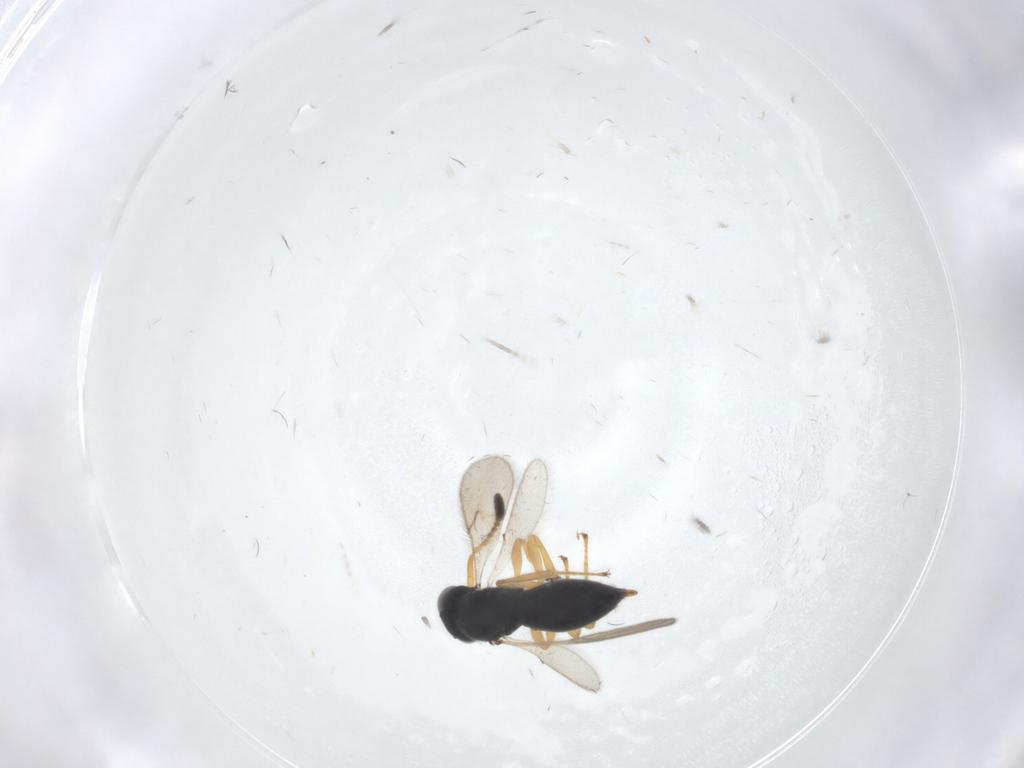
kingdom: Animalia
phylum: Arthropoda
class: Insecta
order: Hymenoptera
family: Scelionidae
